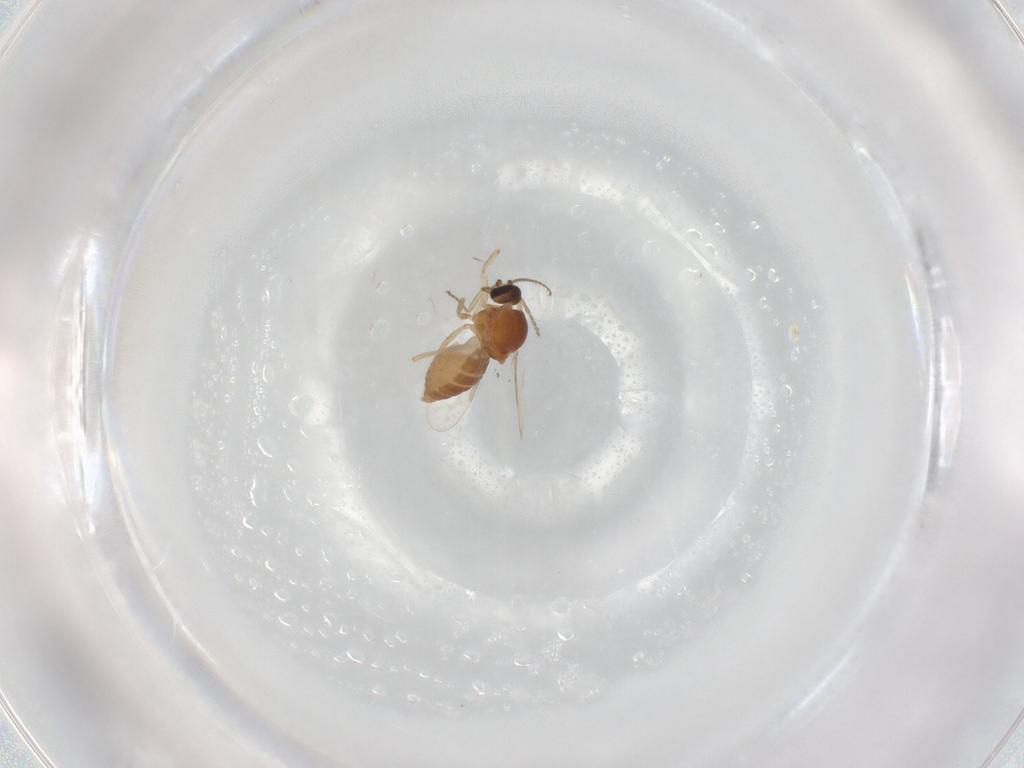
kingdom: Animalia
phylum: Arthropoda
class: Insecta
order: Diptera
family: Ceratopogonidae
